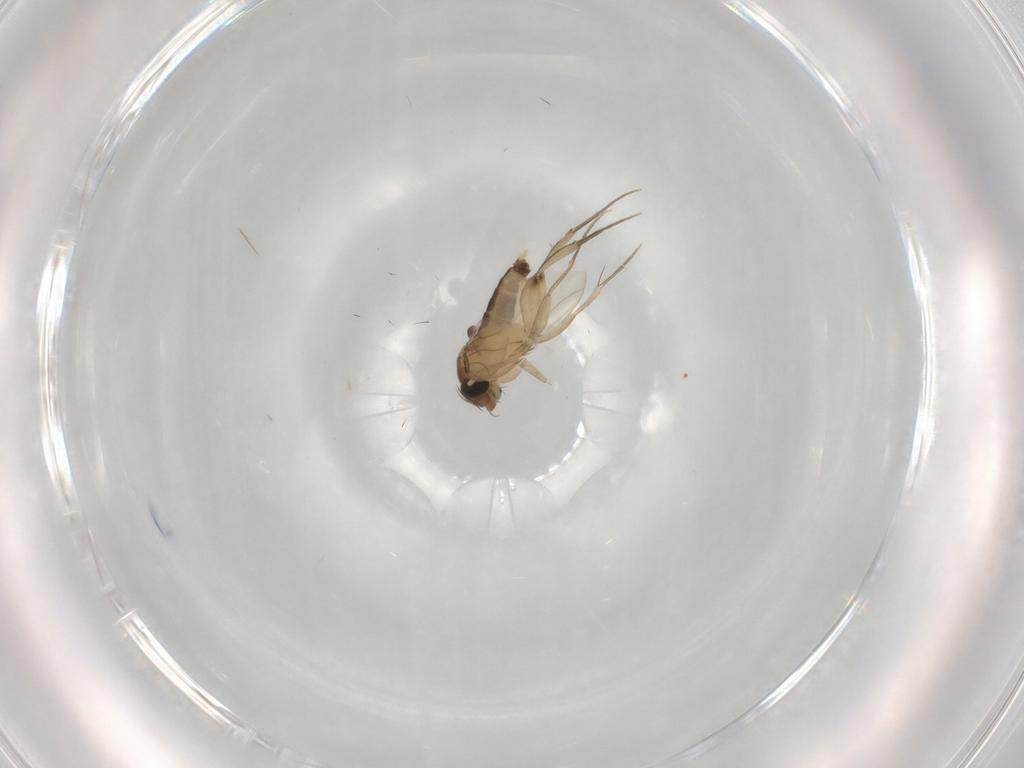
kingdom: Animalia
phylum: Arthropoda
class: Insecta
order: Diptera
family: Phoridae
